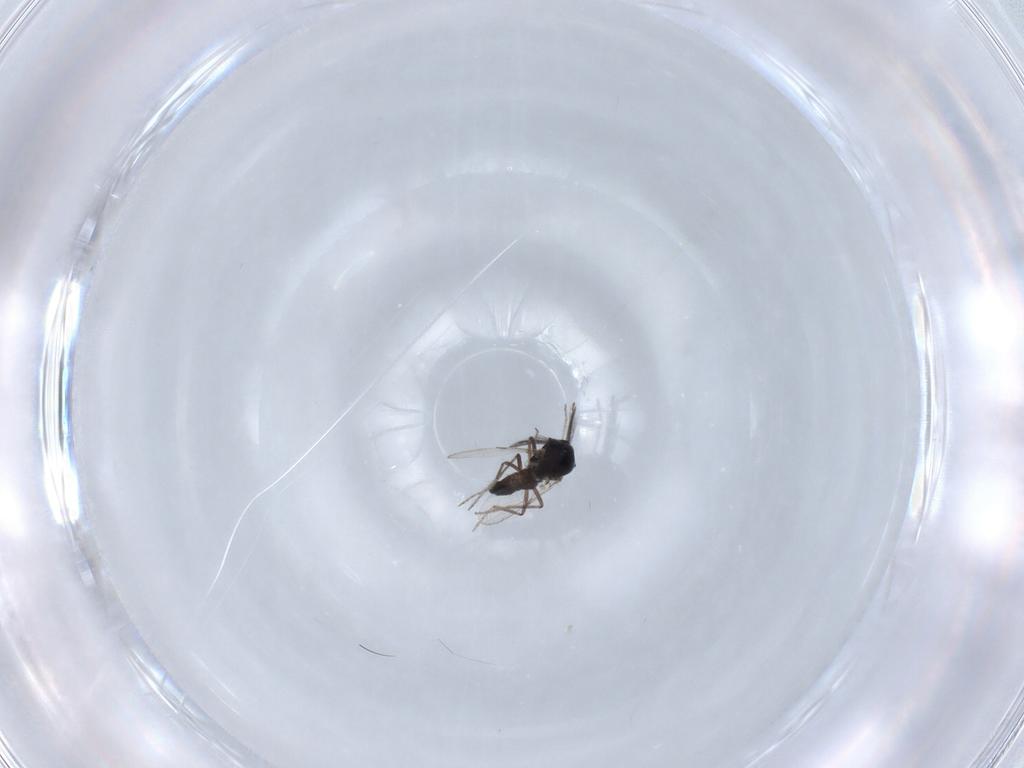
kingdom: Animalia
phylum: Arthropoda
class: Insecta
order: Diptera
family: Ceratopogonidae
